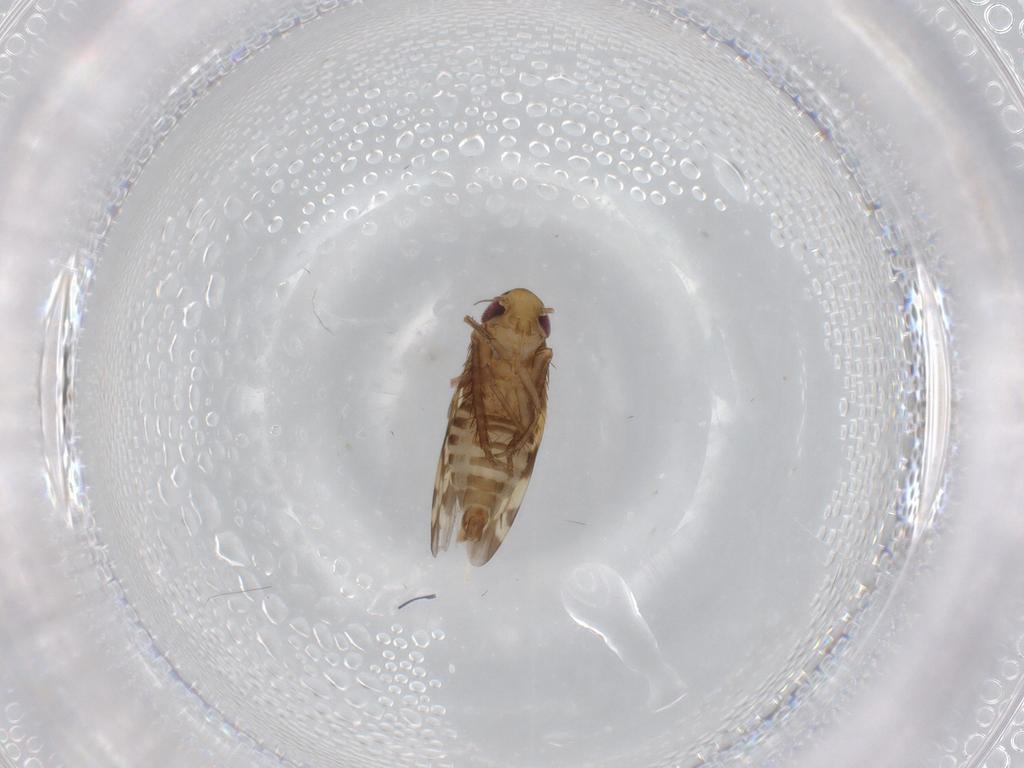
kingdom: Animalia
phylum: Arthropoda
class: Insecta
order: Hemiptera
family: Cicadellidae
